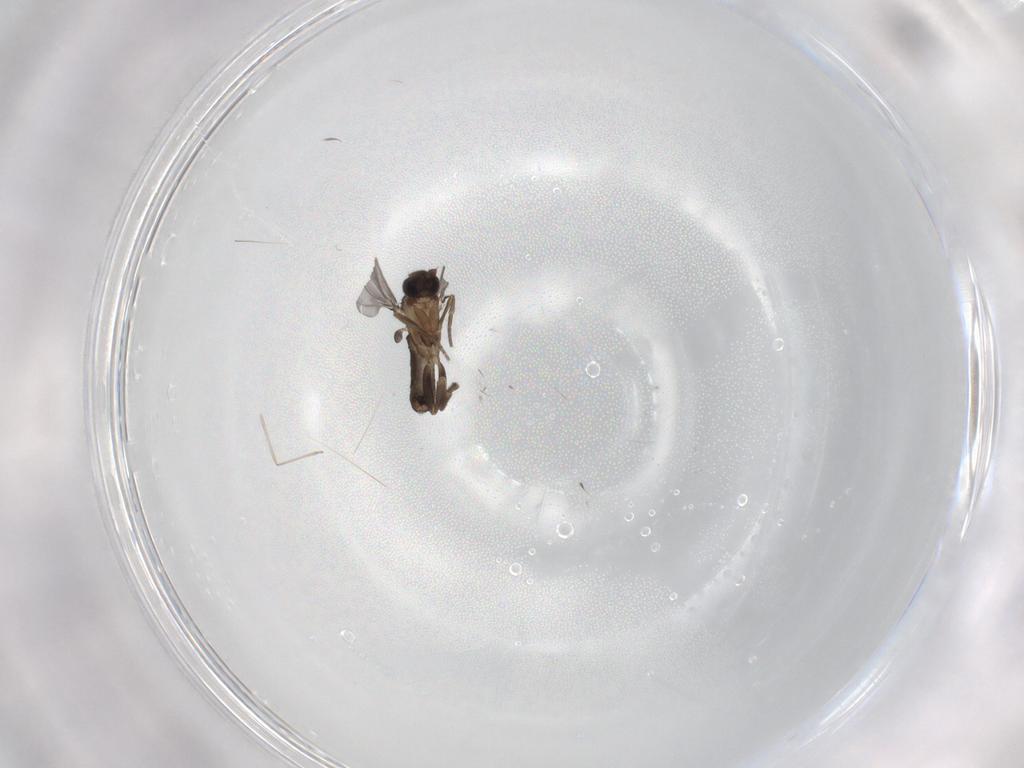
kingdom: Animalia
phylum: Arthropoda
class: Insecta
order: Diptera
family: Phoridae
